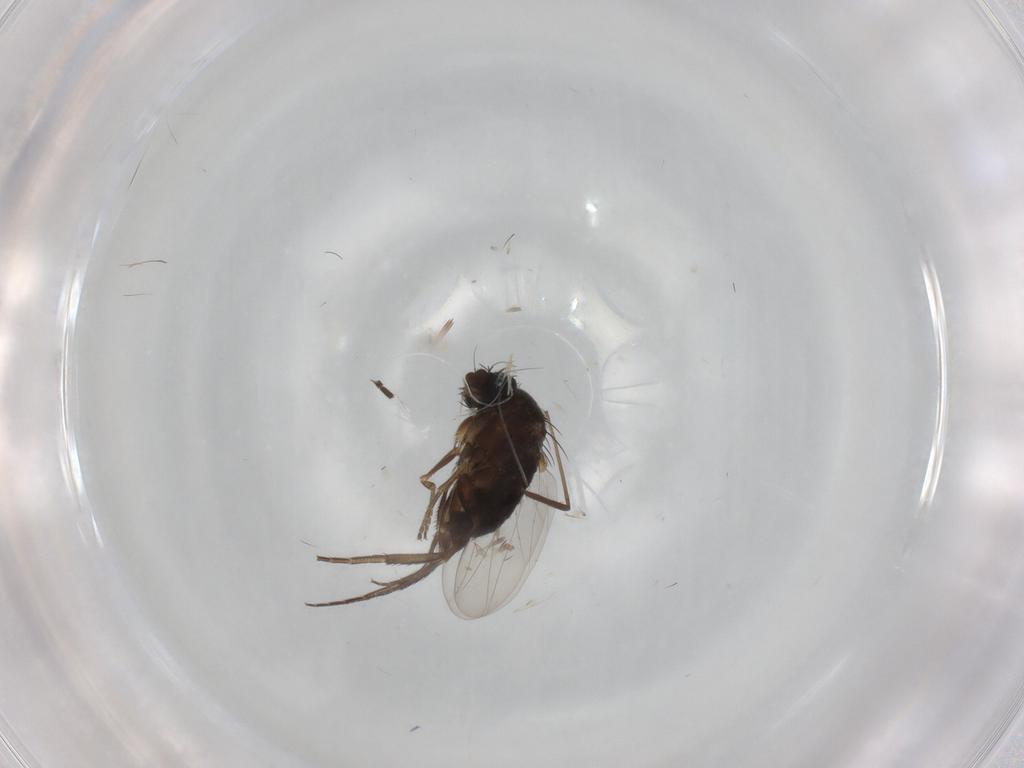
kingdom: Animalia
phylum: Arthropoda
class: Insecta
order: Diptera
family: Phoridae
